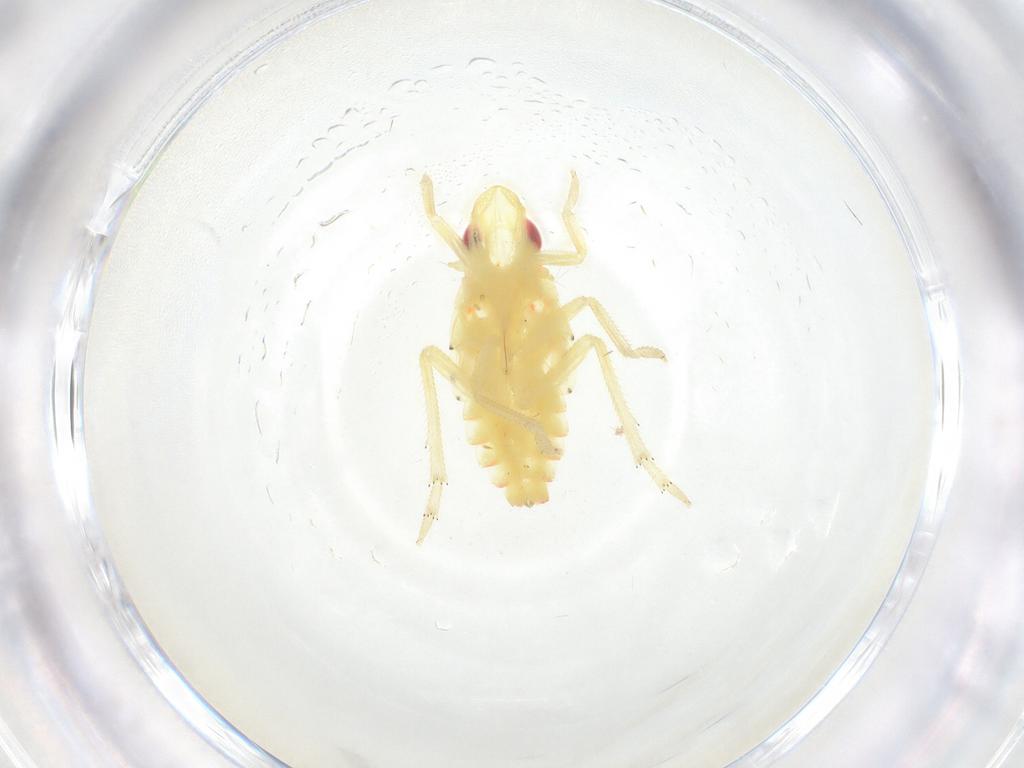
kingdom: Animalia
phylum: Arthropoda
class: Insecta
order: Hemiptera
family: Tropiduchidae
